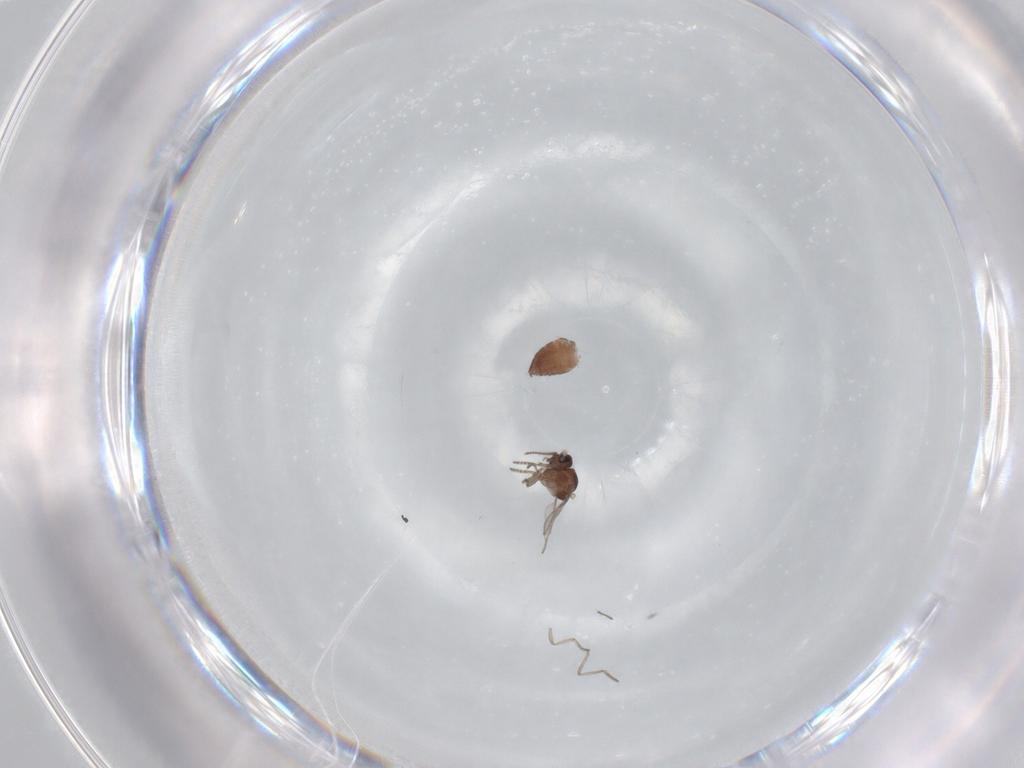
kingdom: Animalia
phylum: Arthropoda
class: Insecta
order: Diptera
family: Ceratopogonidae
